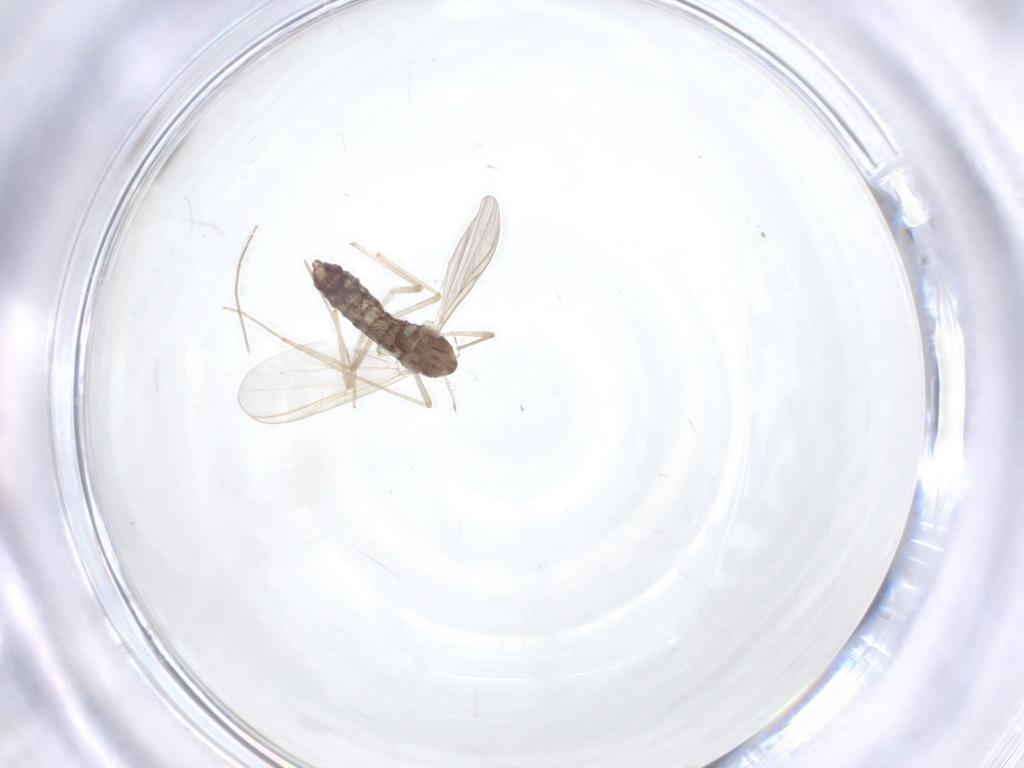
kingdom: Animalia
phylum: Arthropoda
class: Insecta
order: Diptera
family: Chironomidae
